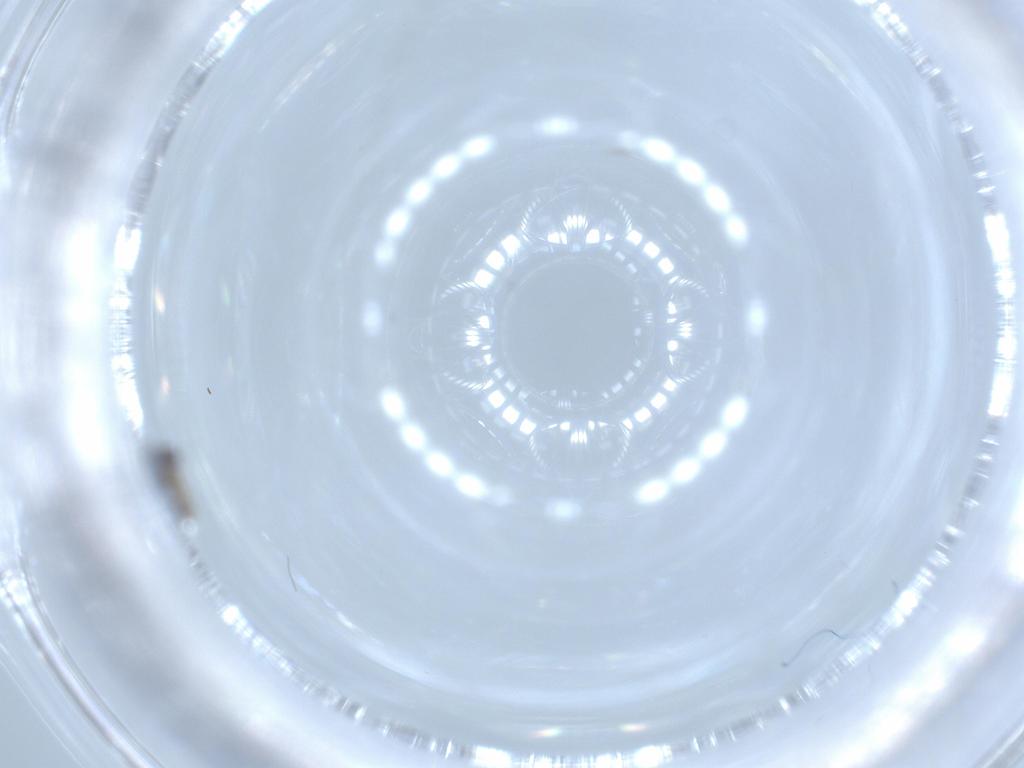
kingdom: Animalia
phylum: Arthropoda
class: Insecta
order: Diptera
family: Cecidomyiidae
